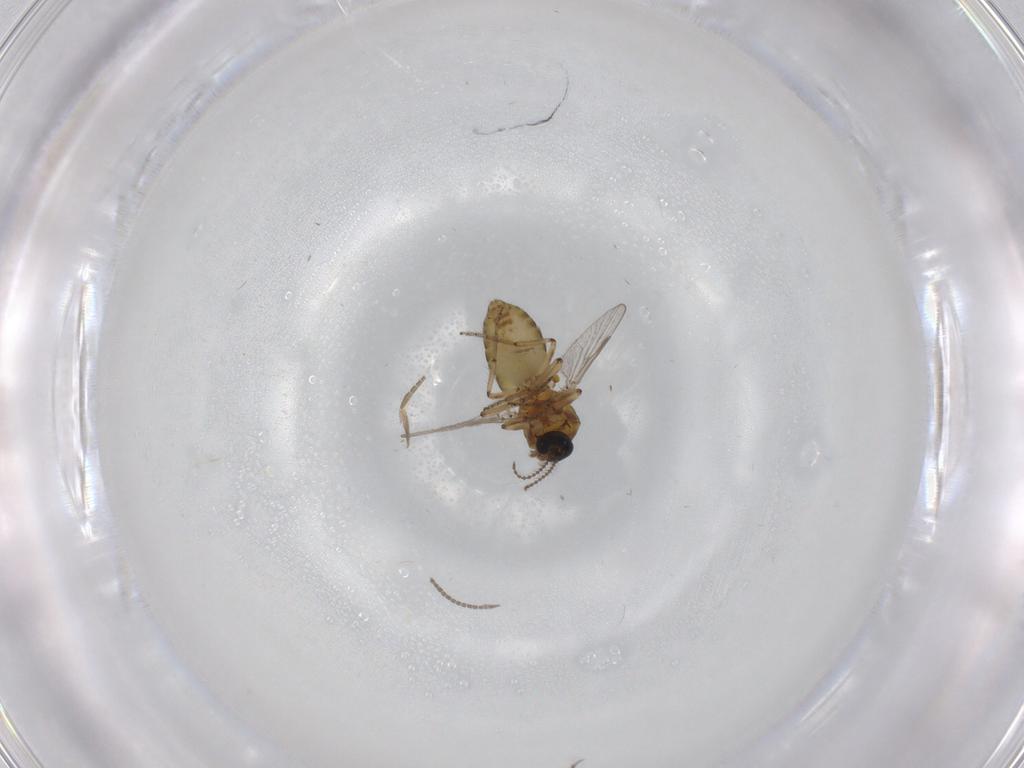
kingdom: Animalia
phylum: Arthropoda
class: Insecta
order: Diptera
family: Ceratopogonidae
